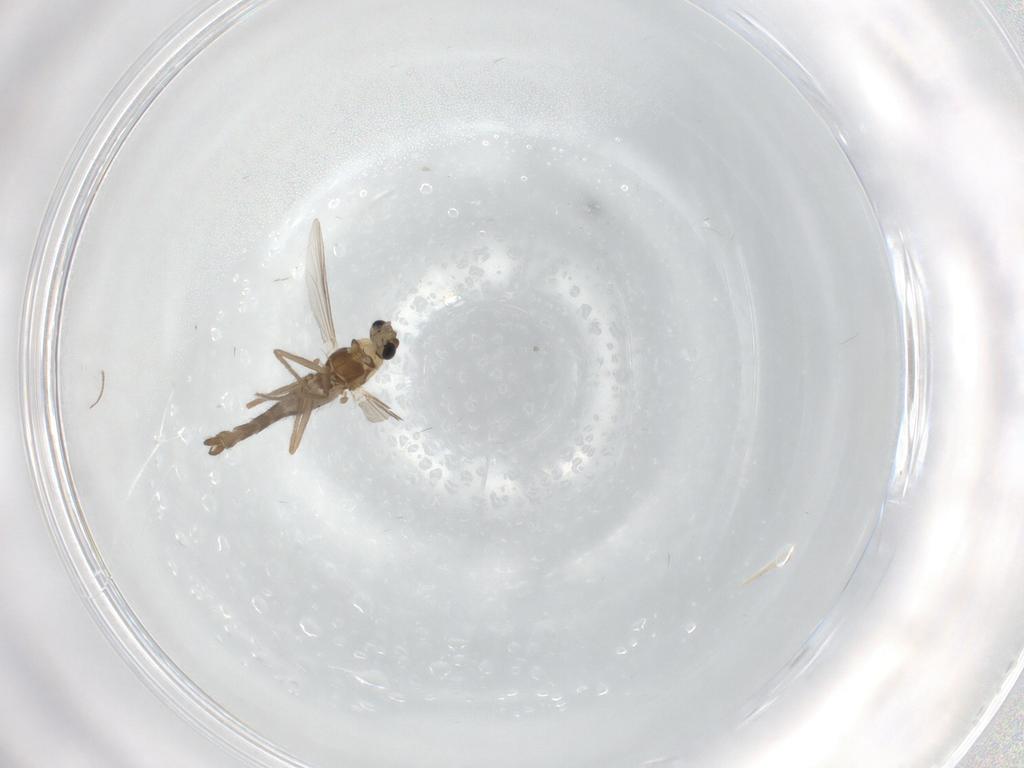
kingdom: Animalia
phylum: Arthropoda
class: Insecta
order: Diptera
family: Chironomidae
